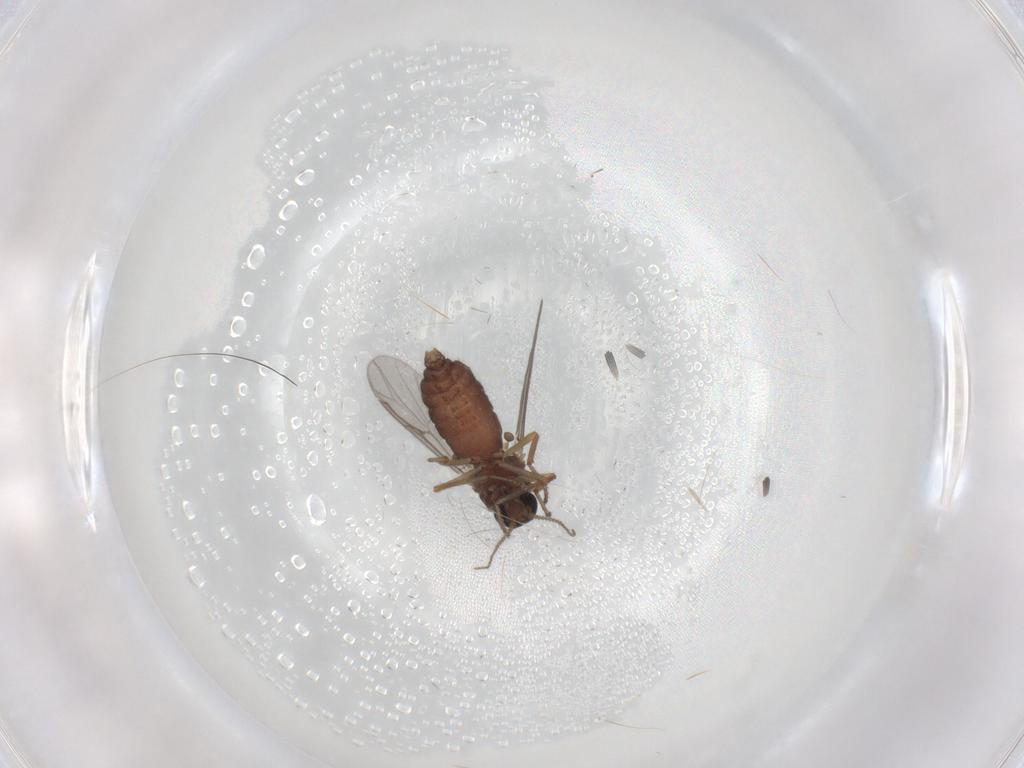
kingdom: Animalia
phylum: Arthropoda
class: Insecta
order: Diptera
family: Ceratopogonidae
